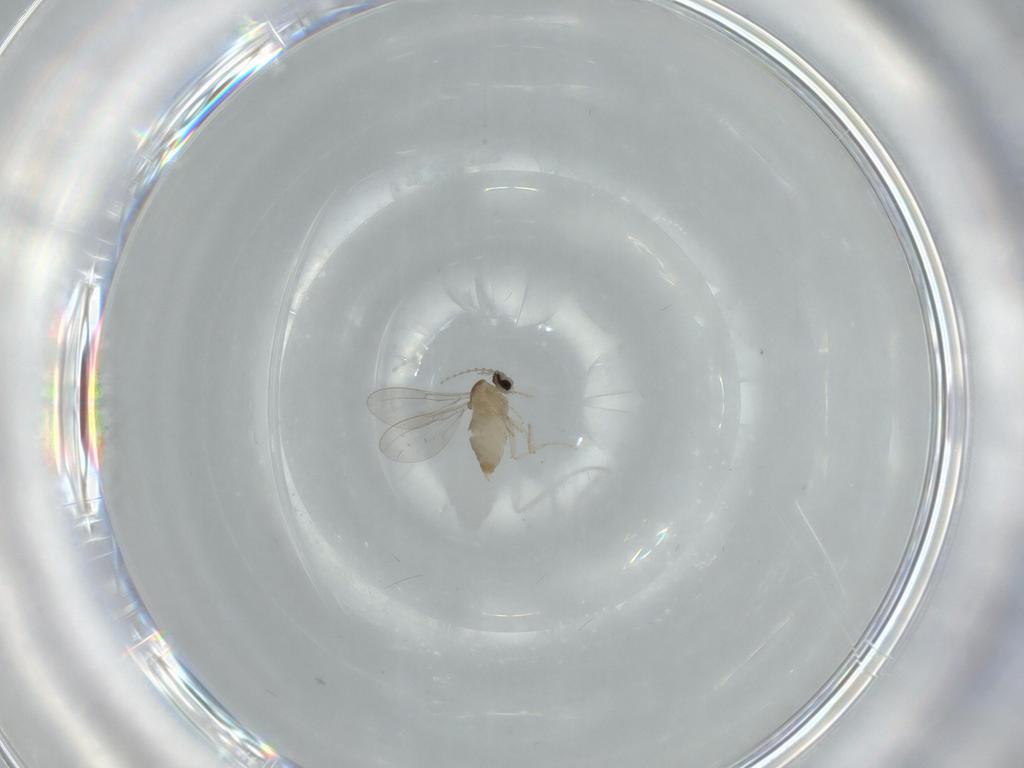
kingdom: Animalia
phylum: Arthropoda
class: Insecta
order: Diptera
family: Cecidomyiidae
